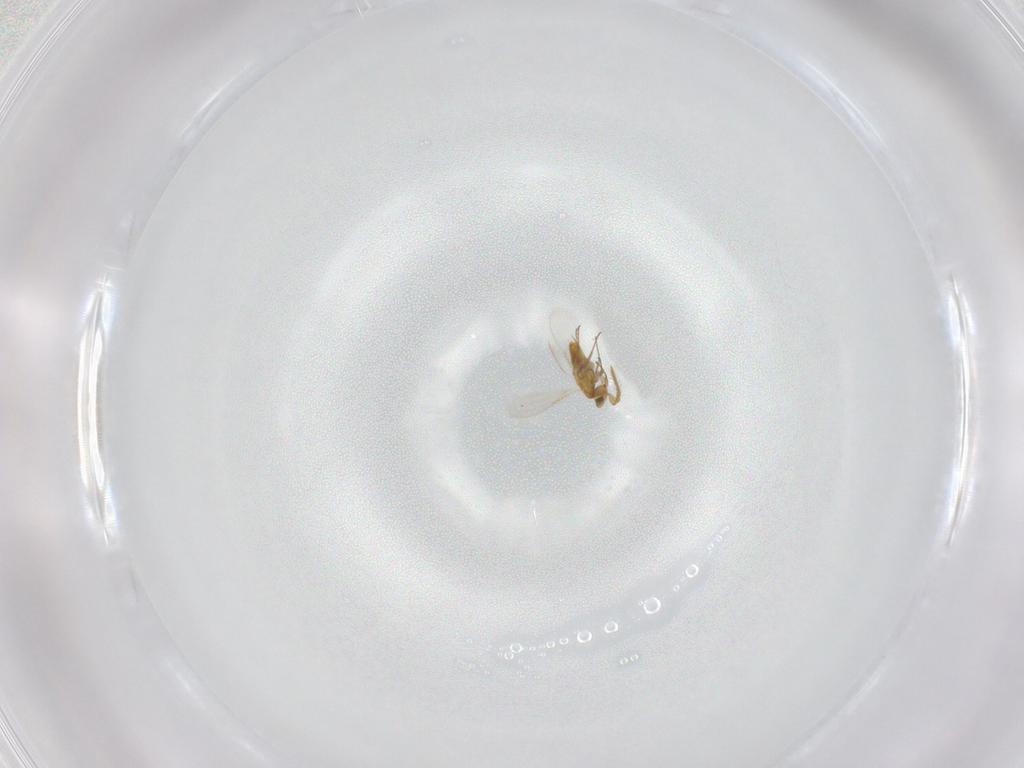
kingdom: Animalia
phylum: Arthropoda
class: Insecta
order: Hymenoptera
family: Aphelinidae
